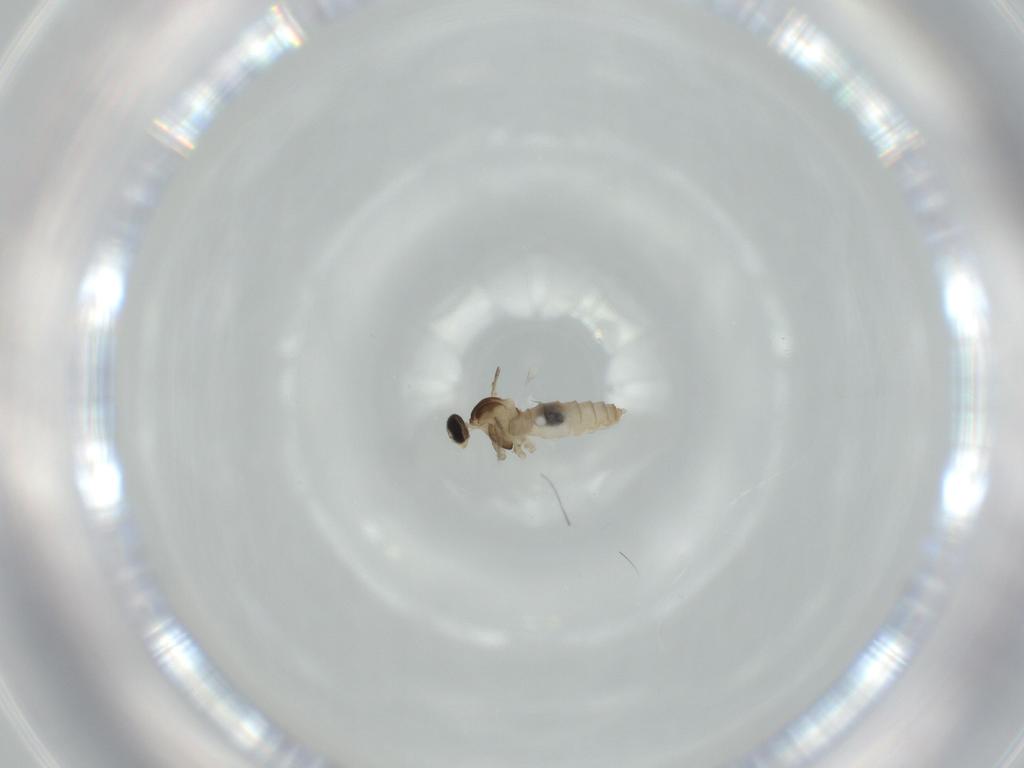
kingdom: Animalia
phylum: Arthropoda
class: Insecta
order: Diptera
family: Cecidomyiidae
